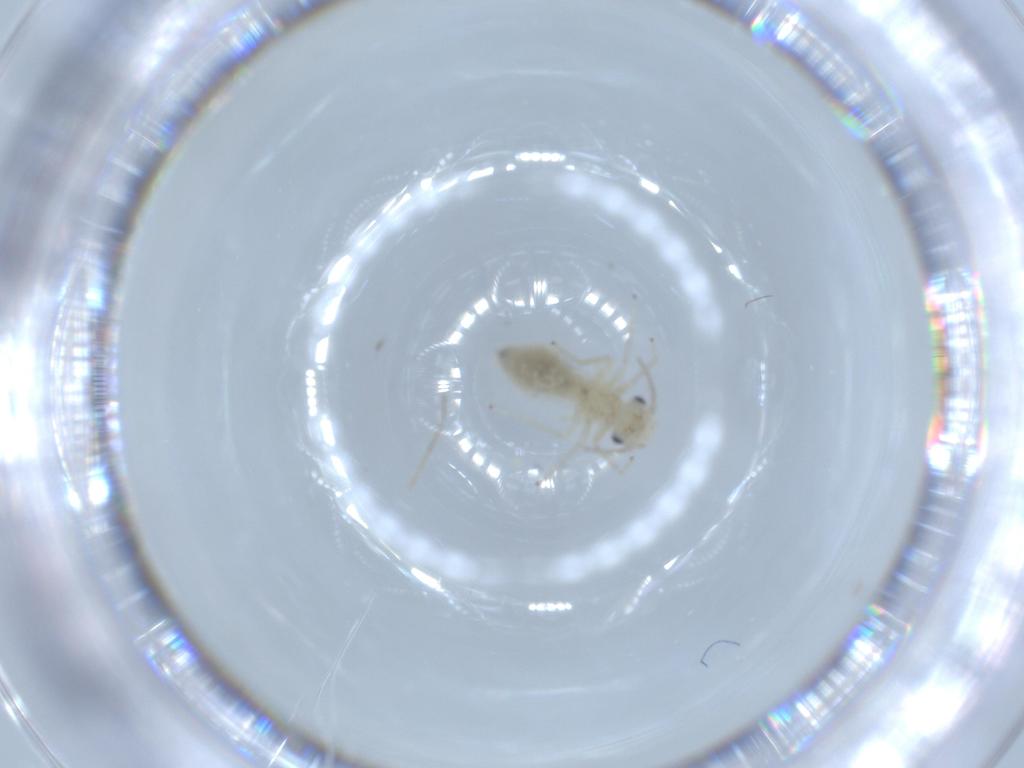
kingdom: Animalia
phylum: Arthropoda
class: Insecta
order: Psocodea
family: Caeciliusidae
